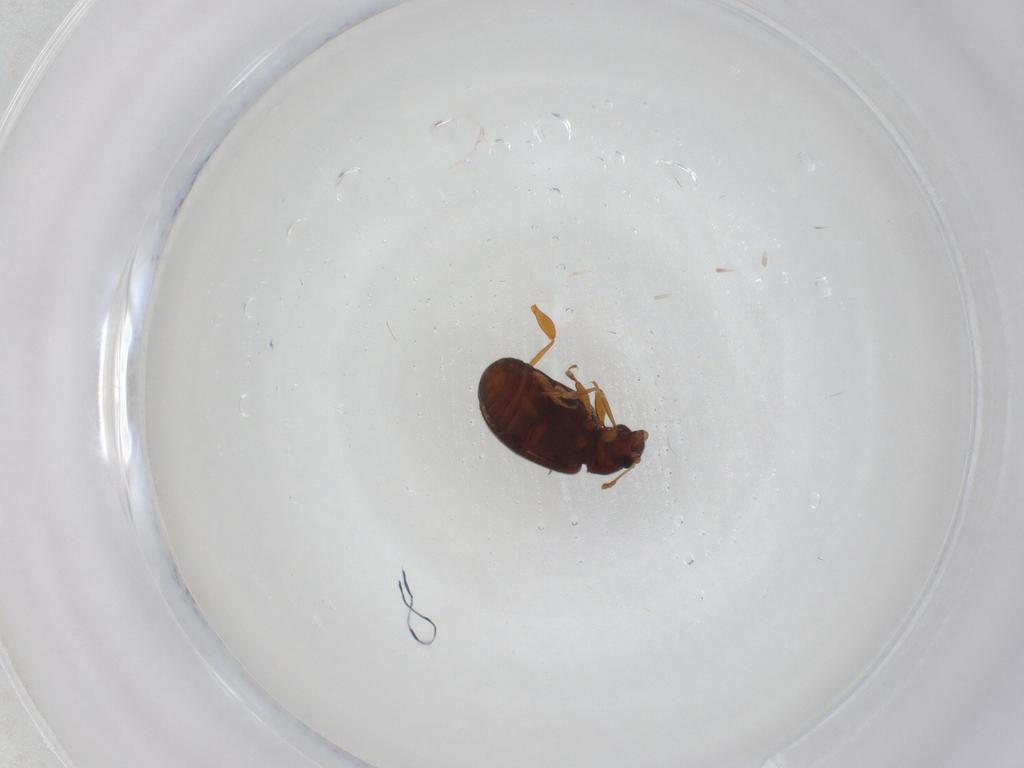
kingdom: Animalia
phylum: Arthropoda
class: Insecta
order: Coleoptera
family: Latridiidae
